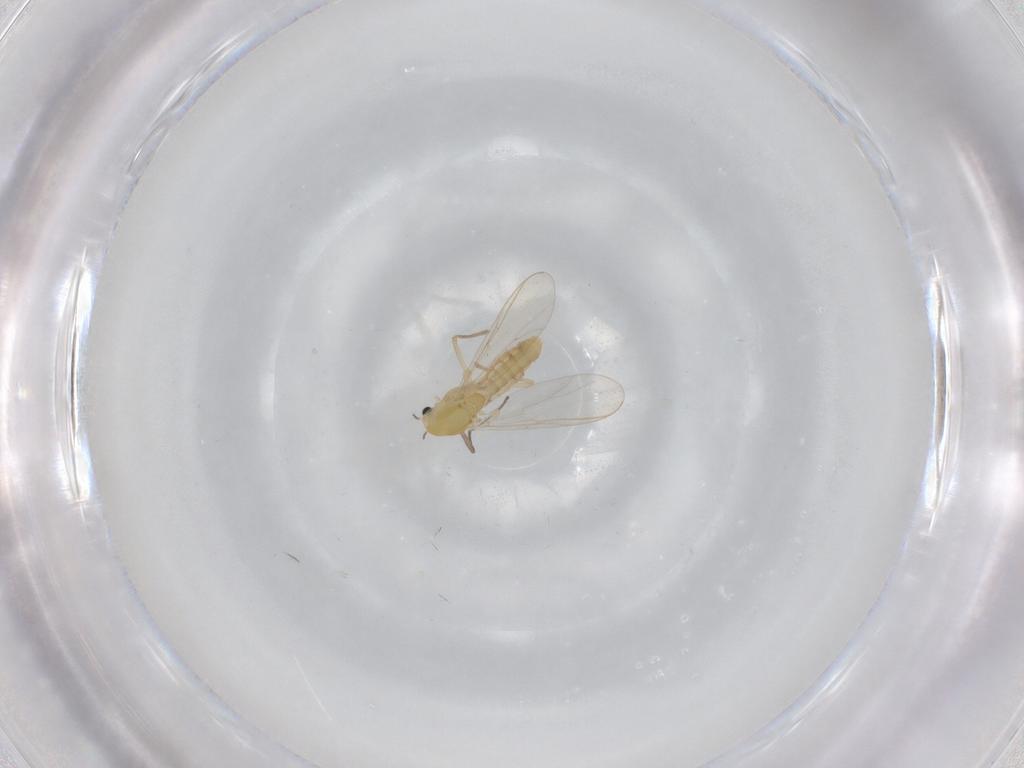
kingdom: Animalia
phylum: Arthropoda
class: Insecta
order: Diptera
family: Chironomidae
